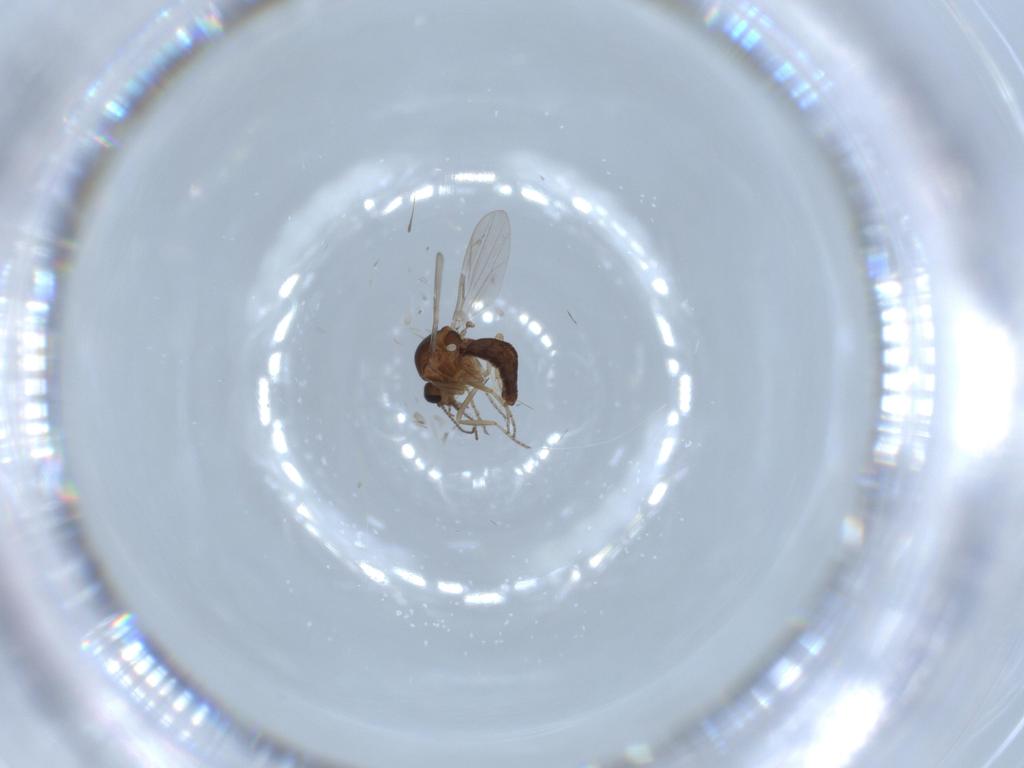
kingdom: Animalia
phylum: Arthropoda
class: Insecta
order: Diptera
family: Ceratopogonidae
